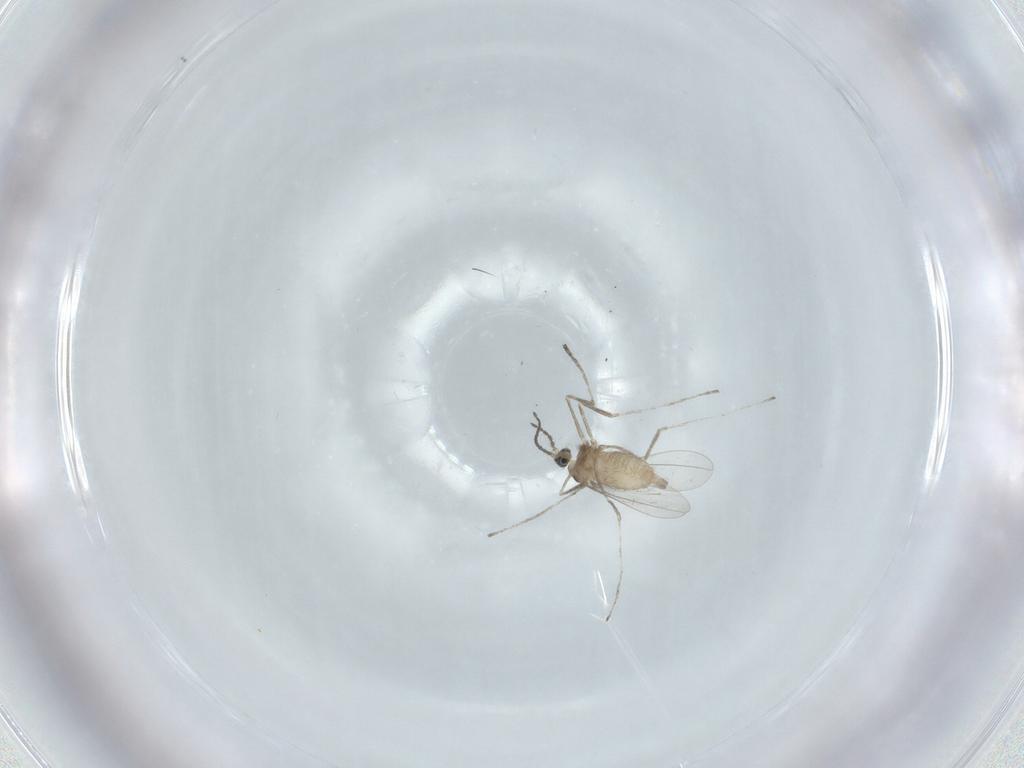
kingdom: Animalia
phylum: Arthropoda
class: Insecta
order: Diptera
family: Cecidomyiidae
